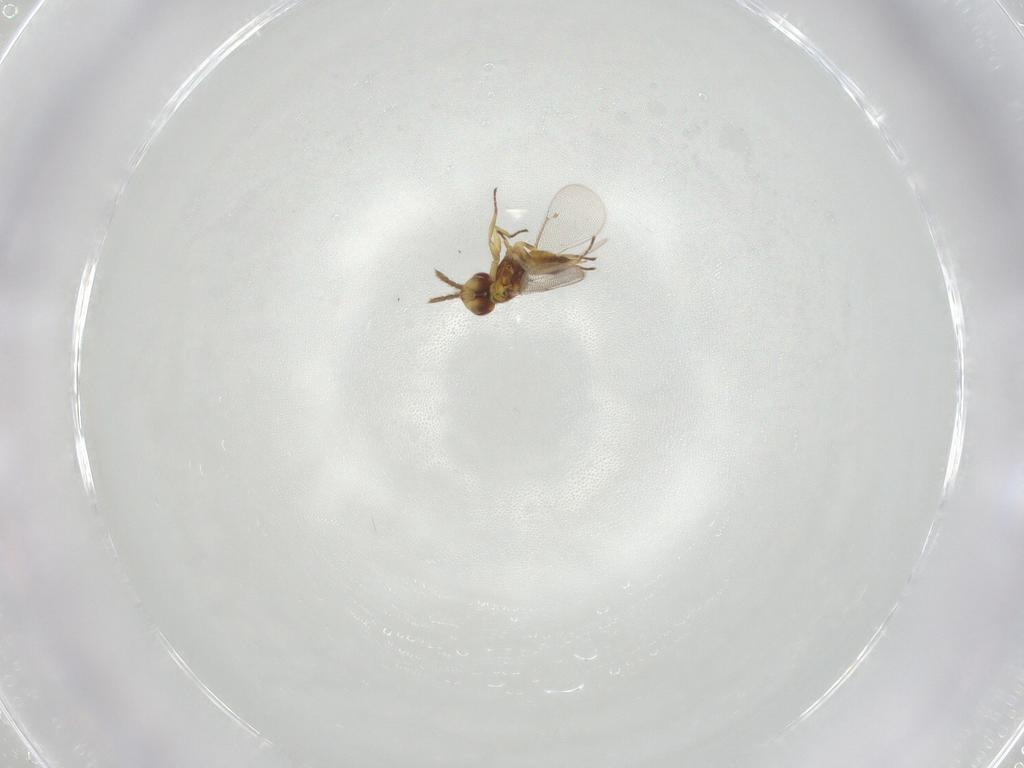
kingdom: Animalia
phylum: Arthropoda
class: Insecta
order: Hymenoptera
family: Eulophidae
